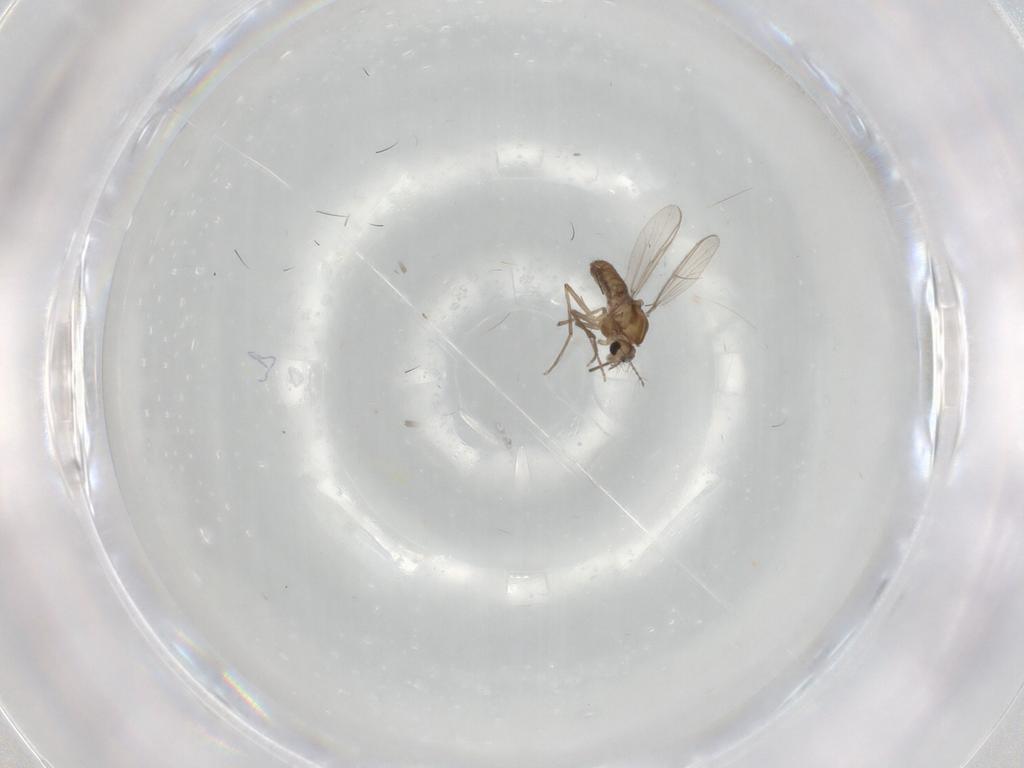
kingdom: Animalia
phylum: Arthropoda
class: Insecta
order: Diptera
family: Chironomidae
